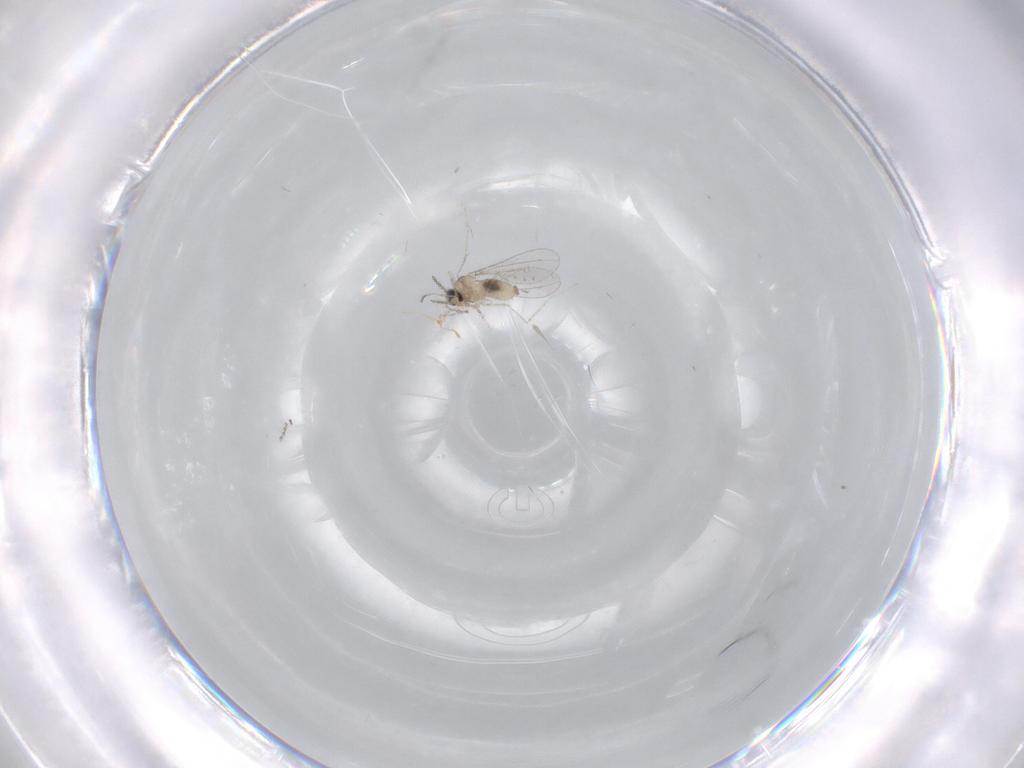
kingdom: Animalia
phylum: Arthropoda
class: Insecta
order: Diptera
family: Cecidomyiidae
